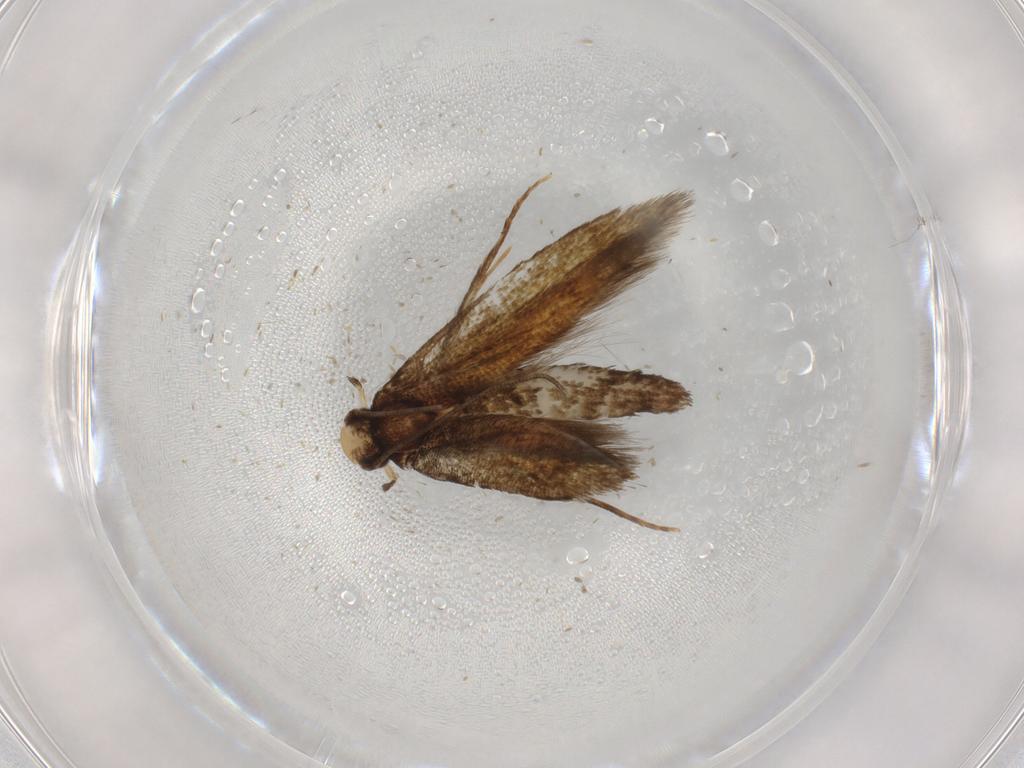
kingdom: Animalia
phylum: Arthropoda
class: Insecta
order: Lepidoptera
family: Tineidae
